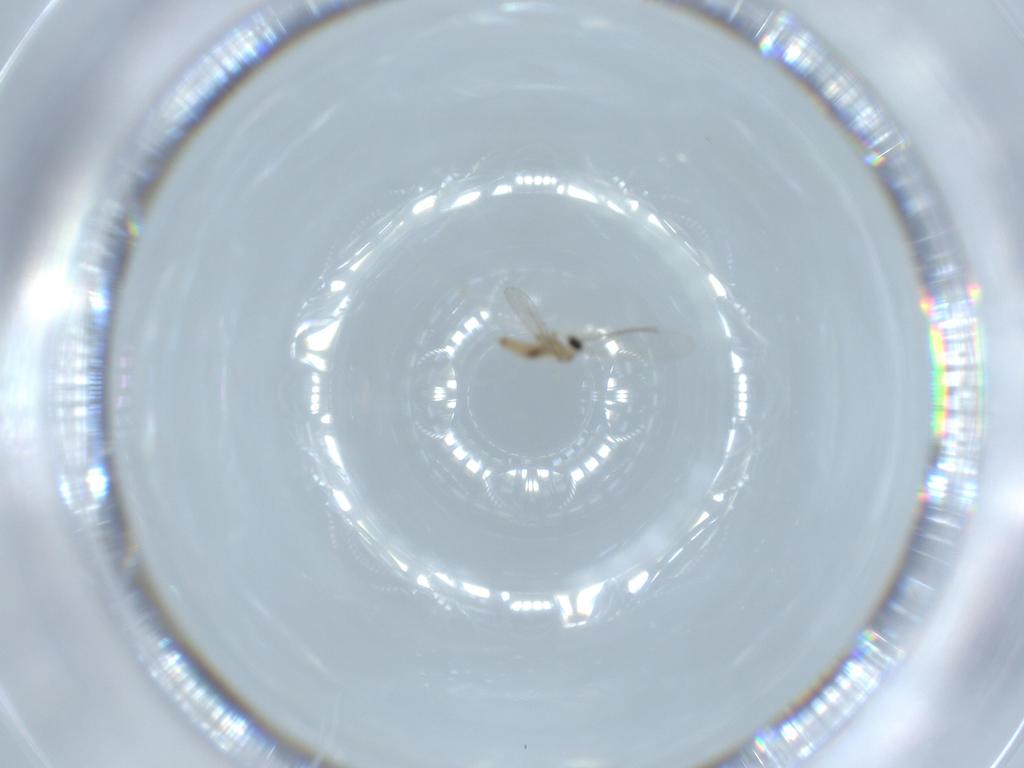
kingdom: Animalia
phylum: Arthropoda
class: Insecta
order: Diptera
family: Cecidomyiidae
